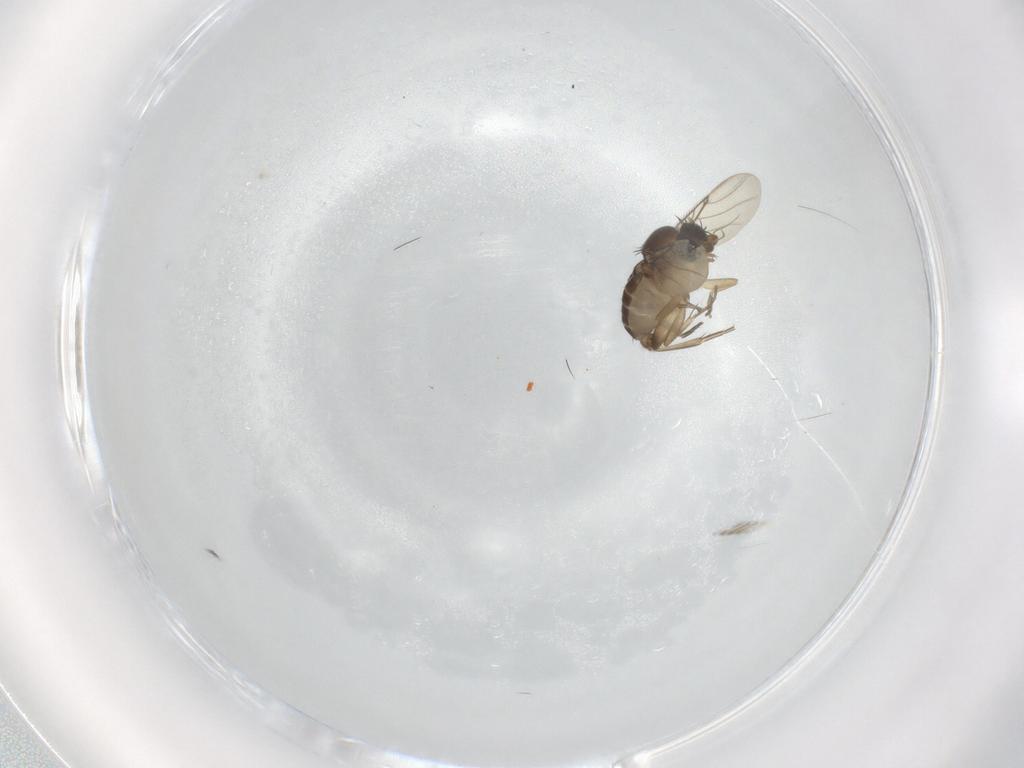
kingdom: Animalia
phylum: Arthropoda
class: Insecta
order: Diptera
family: Phoridae
